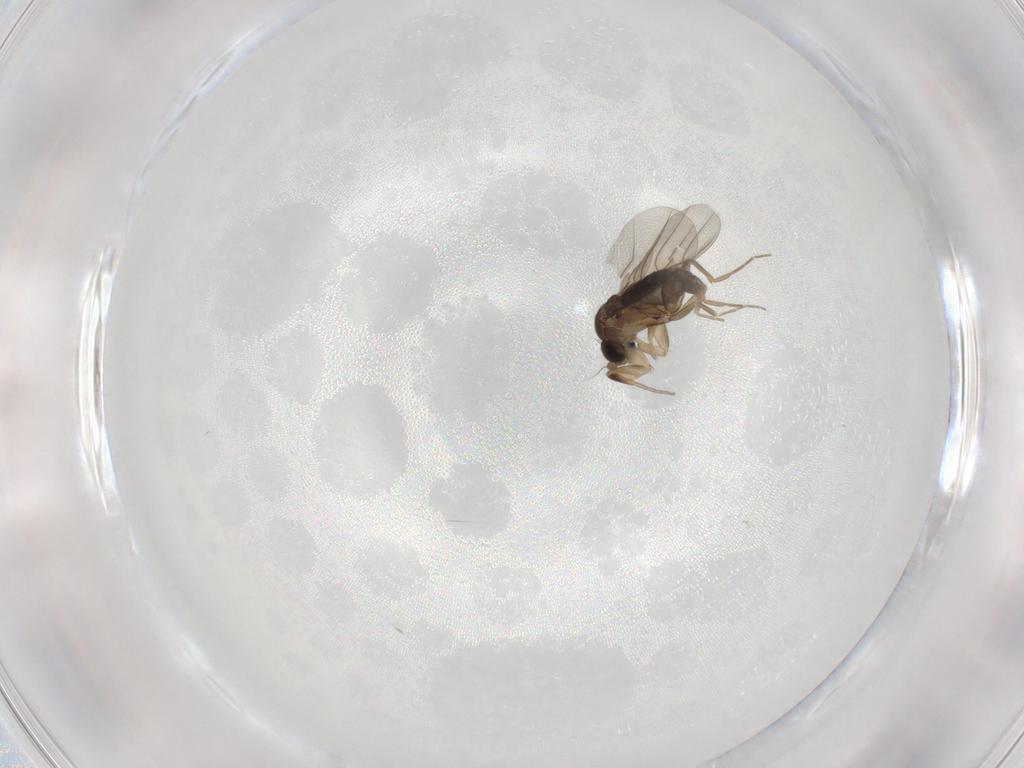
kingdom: Animalia
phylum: Arthropoda
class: Insecta
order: Diptera
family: Phoridae
